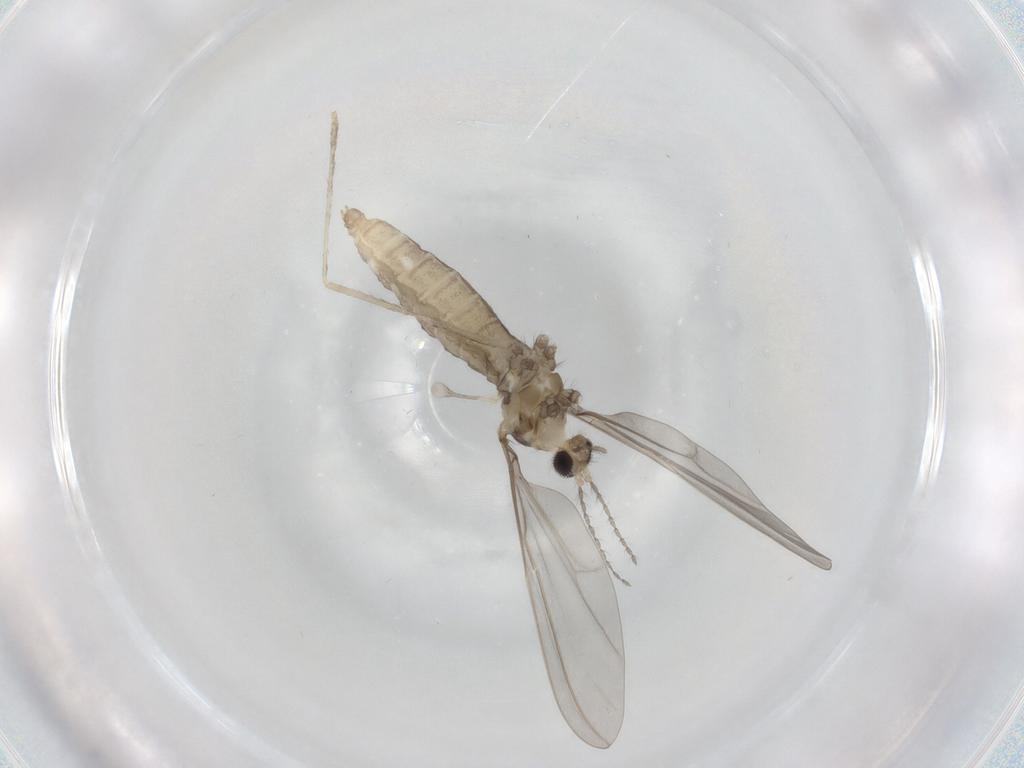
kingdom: Animalia
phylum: Arthropoda
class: Insecta
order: Diptera
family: Cecidomyiidae
